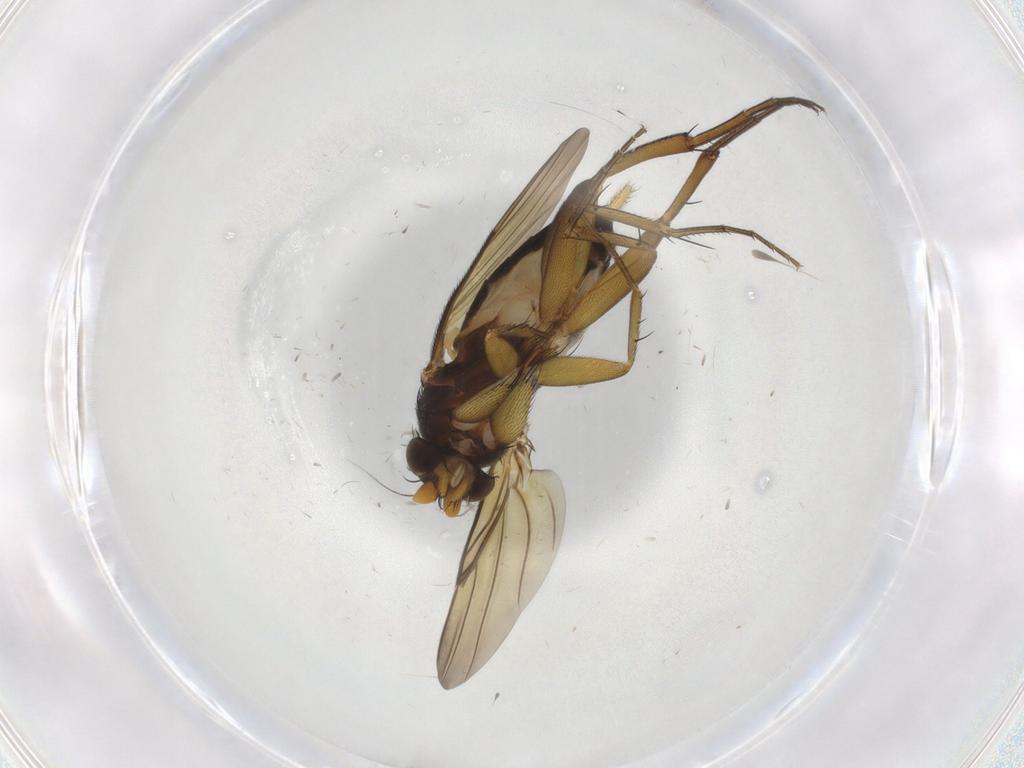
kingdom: Animalia
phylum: Arthropoda
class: Insecta
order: Diptera
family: Phoridae
